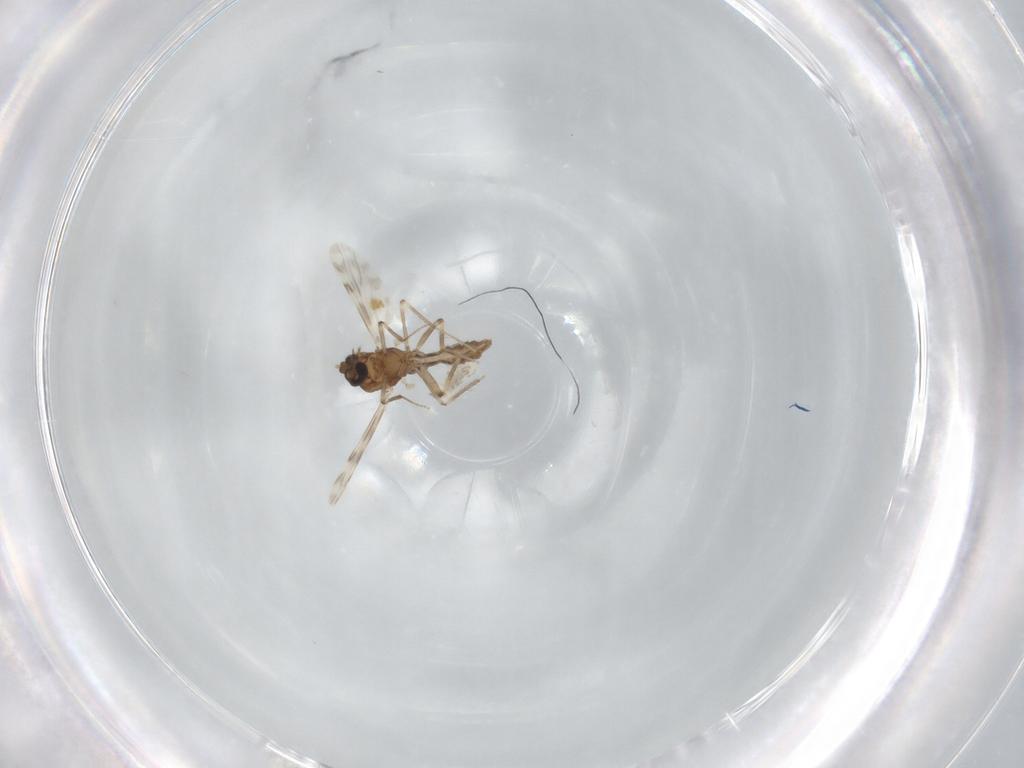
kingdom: Animalia
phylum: Arthropoda
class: Insecta
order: Diptera
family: Ceratopogonidae
